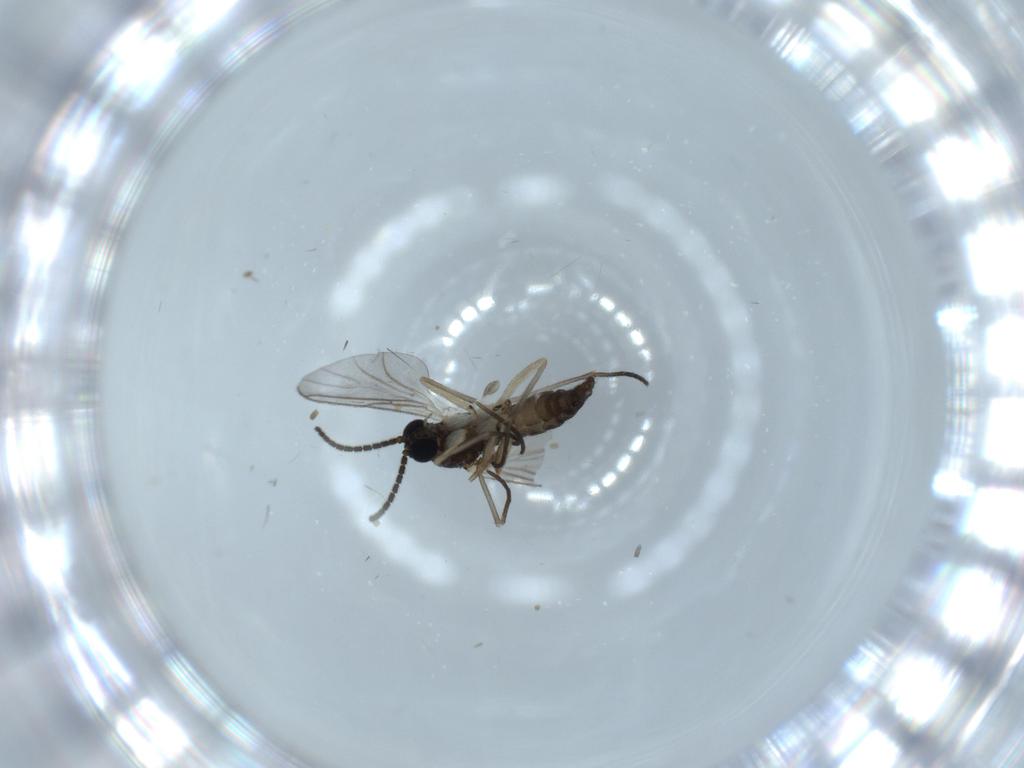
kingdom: Animalia
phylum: Arthropoda
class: Insecta
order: Diptera
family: Sciaridae
